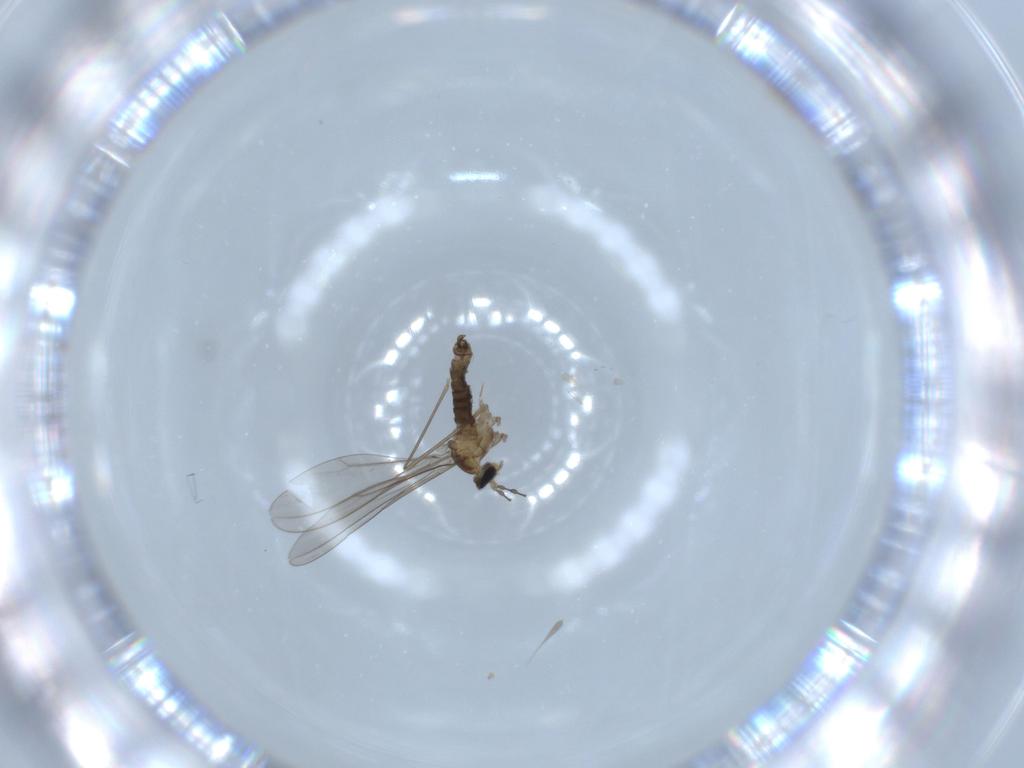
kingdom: Animalia
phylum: Arthropoda
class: Insecta
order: Diptera
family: Cecidomyiidae
